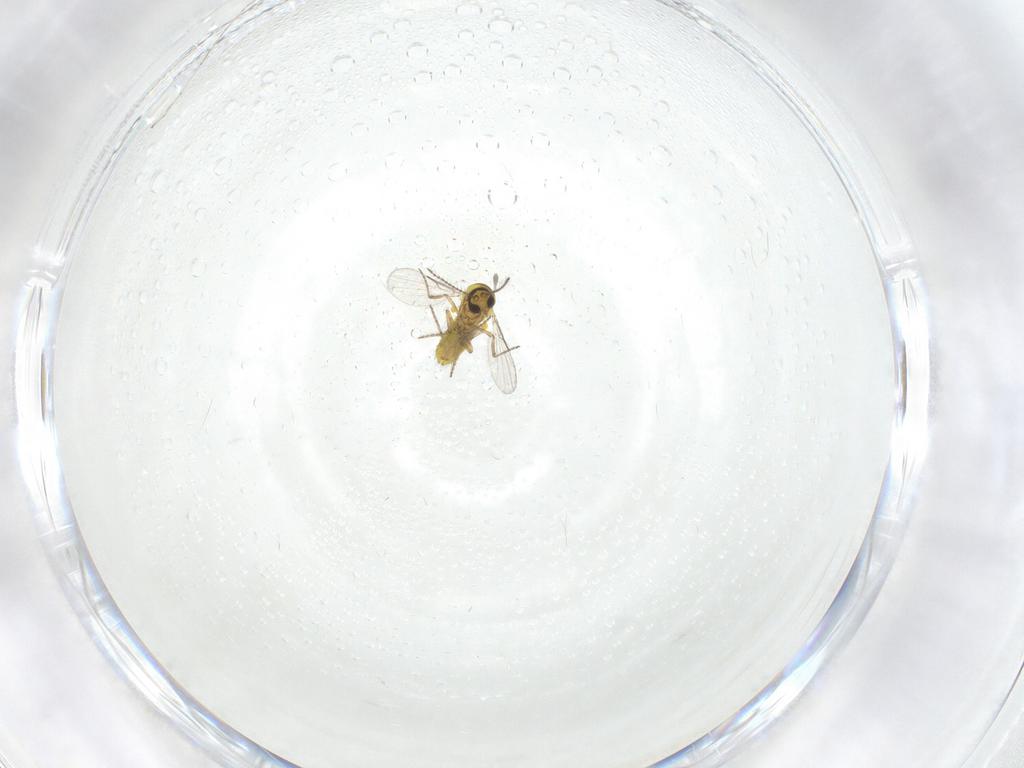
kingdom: Animalia
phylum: Arthropoda
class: Insecta
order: Diptera
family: Ceratopogonidae
